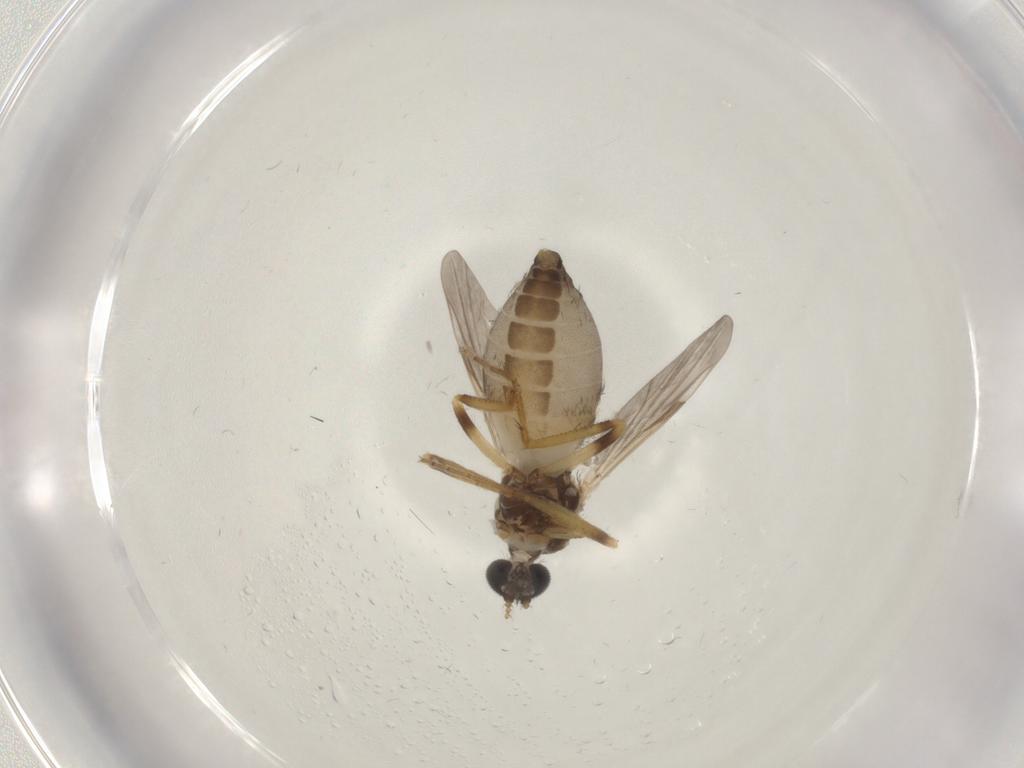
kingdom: Animalia
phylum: Arthropoda
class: Insecta
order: Diptera
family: Ceratopogonidae
